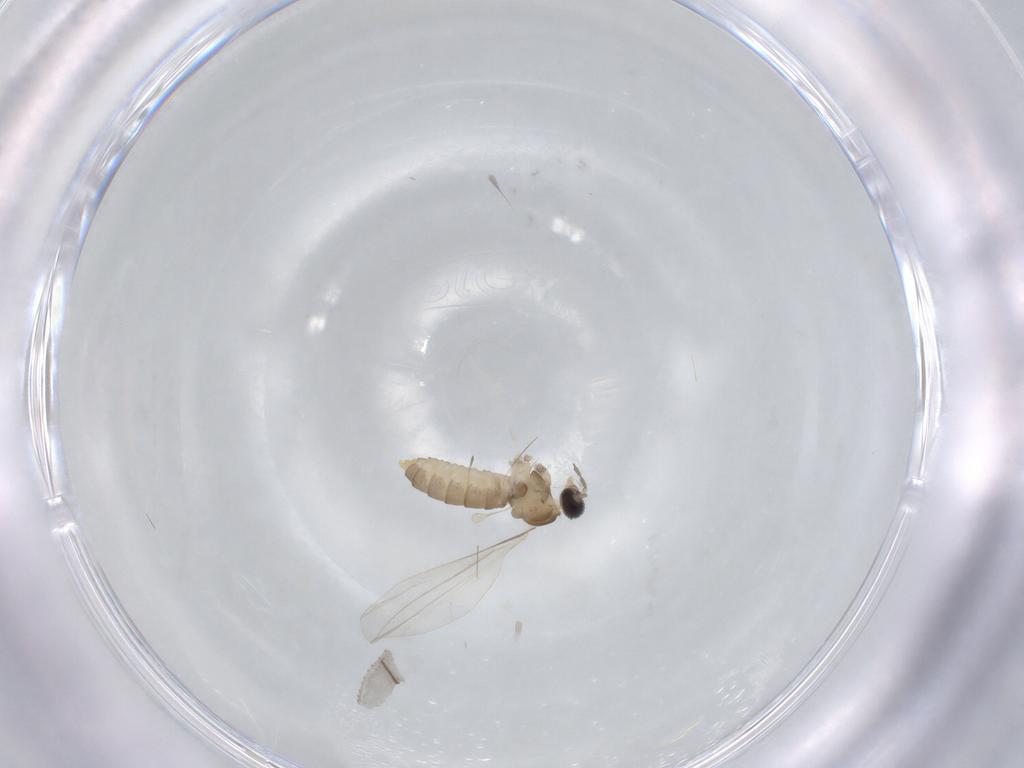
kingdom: Animalia
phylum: Arthropoda
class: Insecta
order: Diptera
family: Cecidomyiidae
